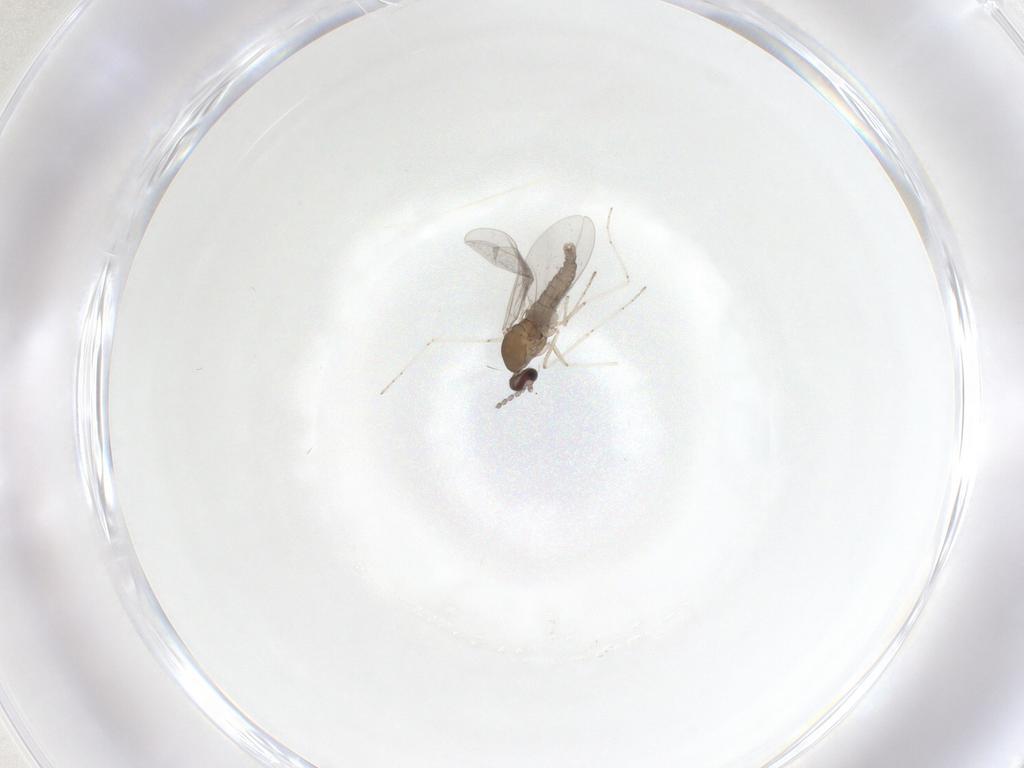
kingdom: Animalia
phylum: Arthropoda
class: Insecta
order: Diptera
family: Ceratopogonidae
